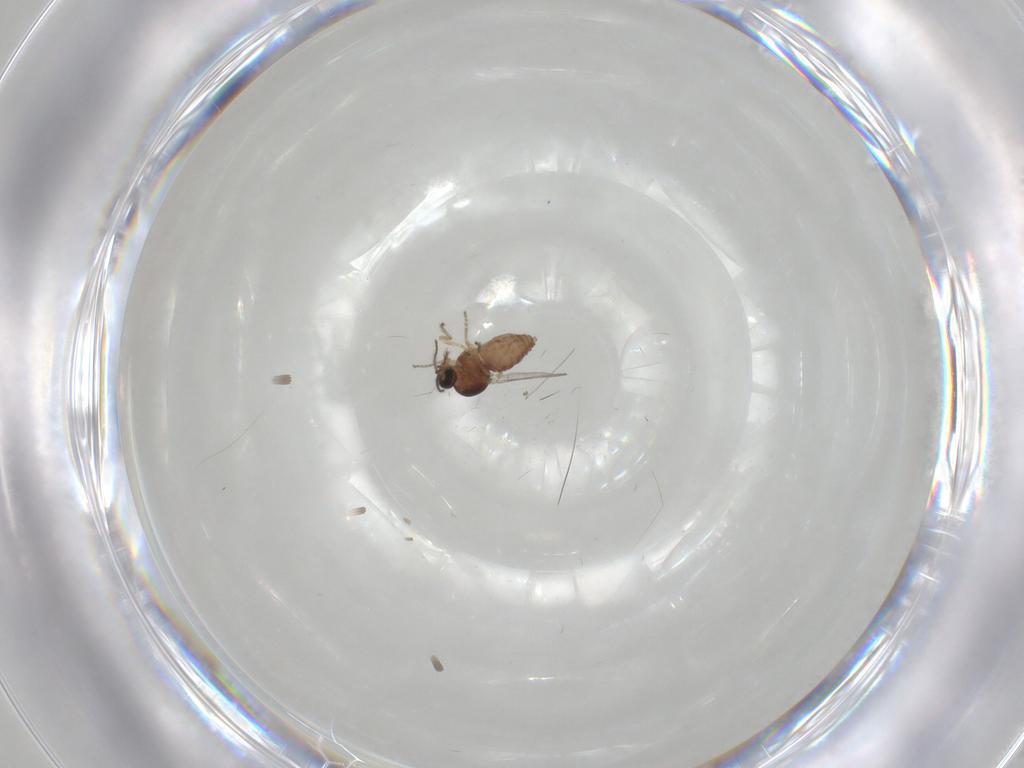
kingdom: Animalia
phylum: Arthropoda
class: Insecta
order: Diptera
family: Ceratopogonidae
